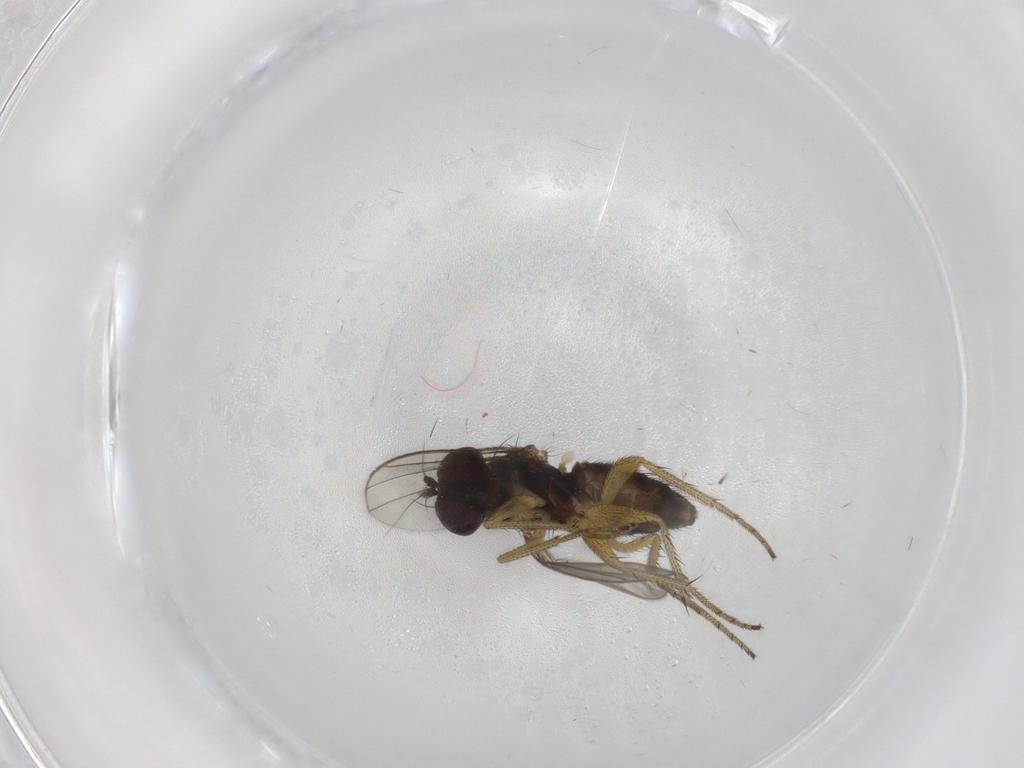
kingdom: Animalia
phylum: Arthropoda
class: Insecta
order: Diptera
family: Dolichopodidae
